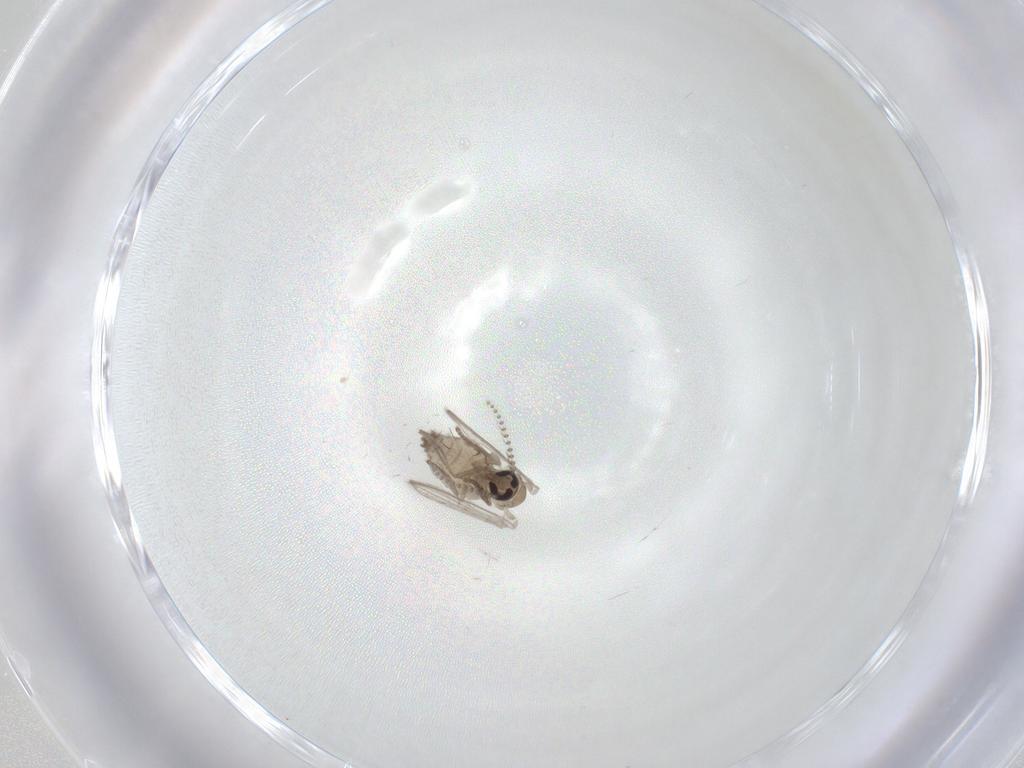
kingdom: Animalia
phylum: Arthropoda
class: Insecta
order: Diptera
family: Psychodidae
